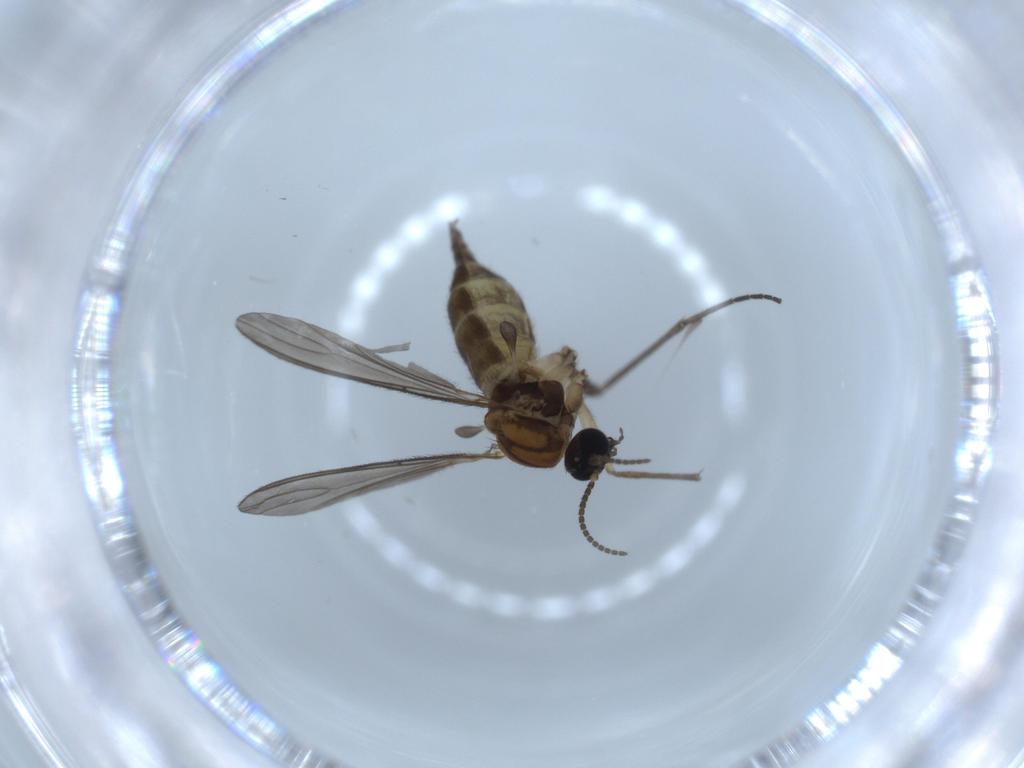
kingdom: Animalia
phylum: Arthropoda
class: Insecta
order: Diptera
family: Sciaridae
